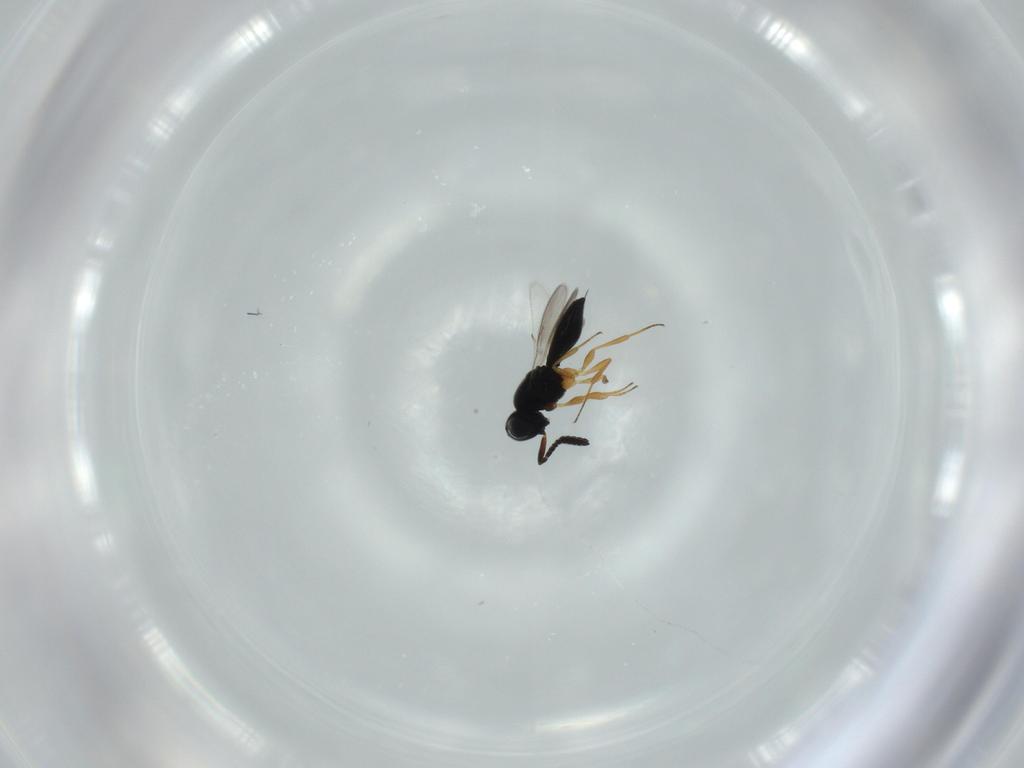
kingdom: Animalia
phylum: Arthropoda
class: Insecta
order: Hymenoptera
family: Scelionidae
